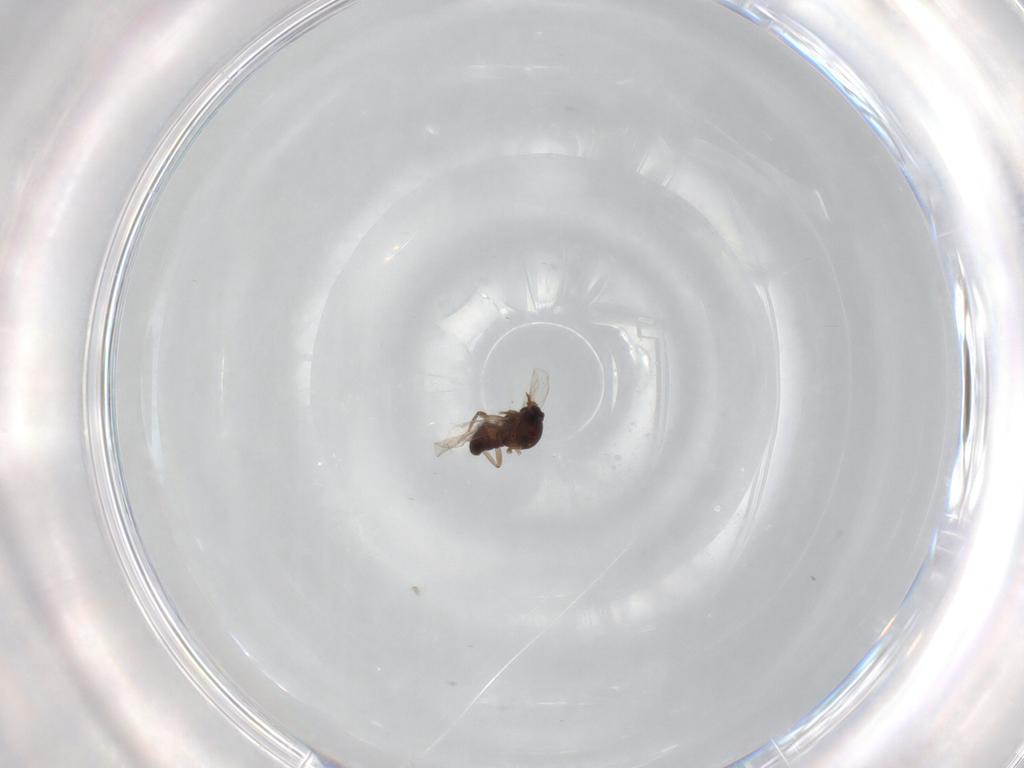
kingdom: Animalia
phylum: Arthropoda
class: Insecta
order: Diptera
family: Ceratopogonidae
